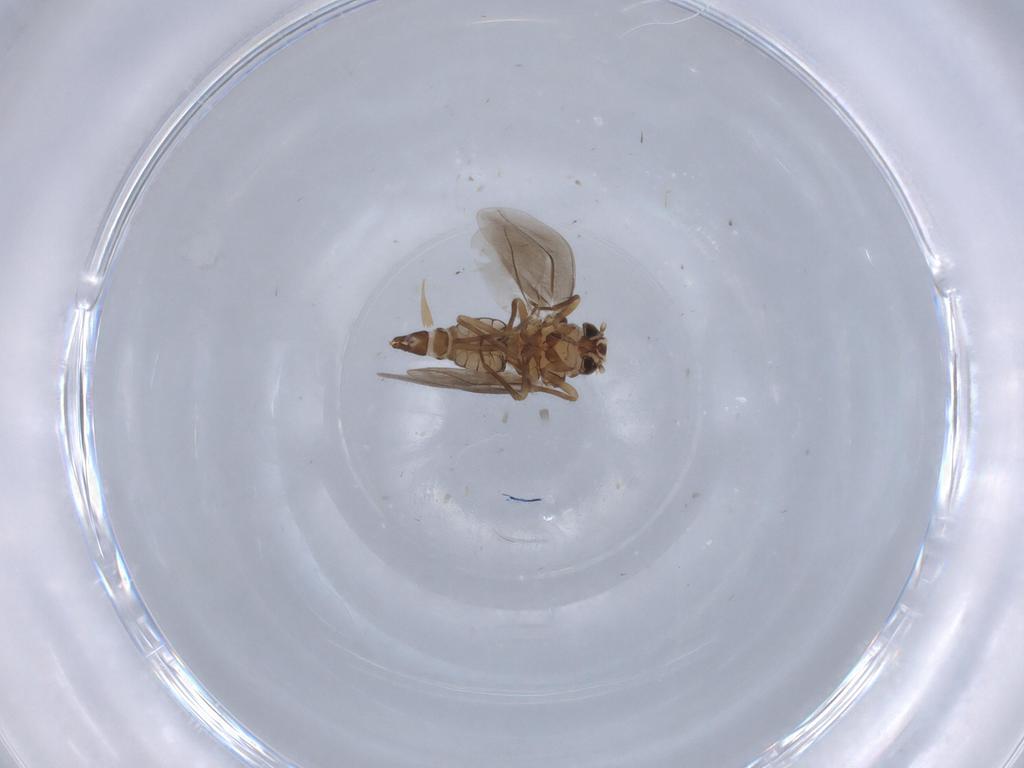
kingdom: Animalia
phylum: Arthropoda
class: Insecta
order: Hemiptera
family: Aleyrodidae
